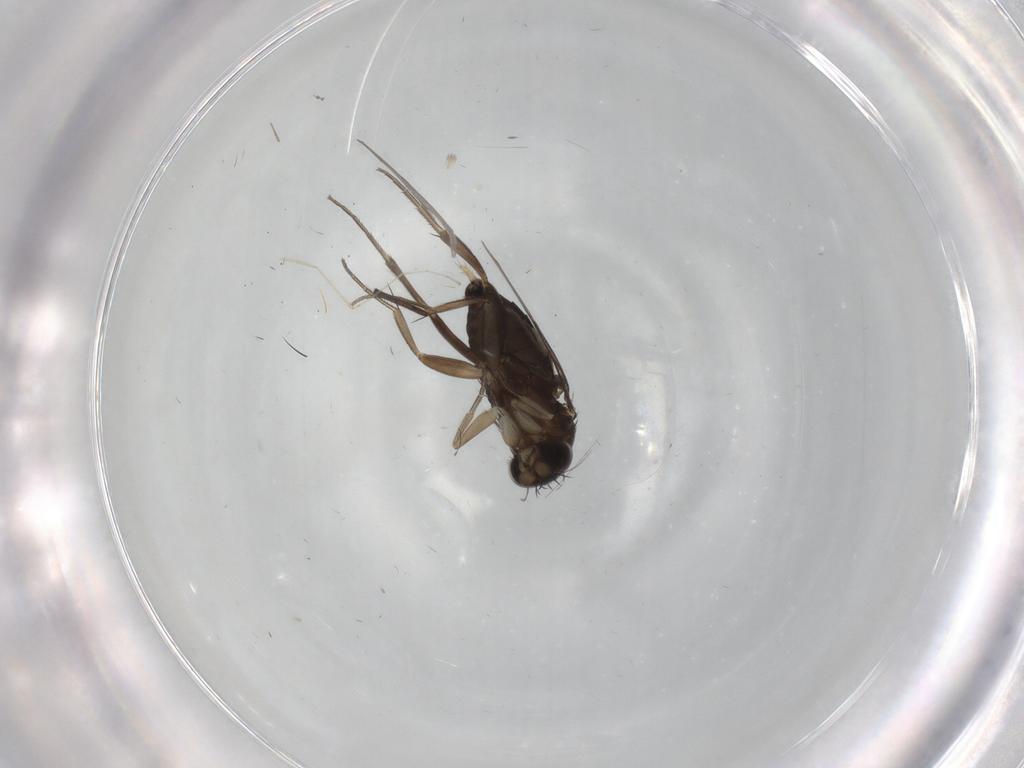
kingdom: Animalia
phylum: Arthropoda
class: Insecta
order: Diptera
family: Phoridae
